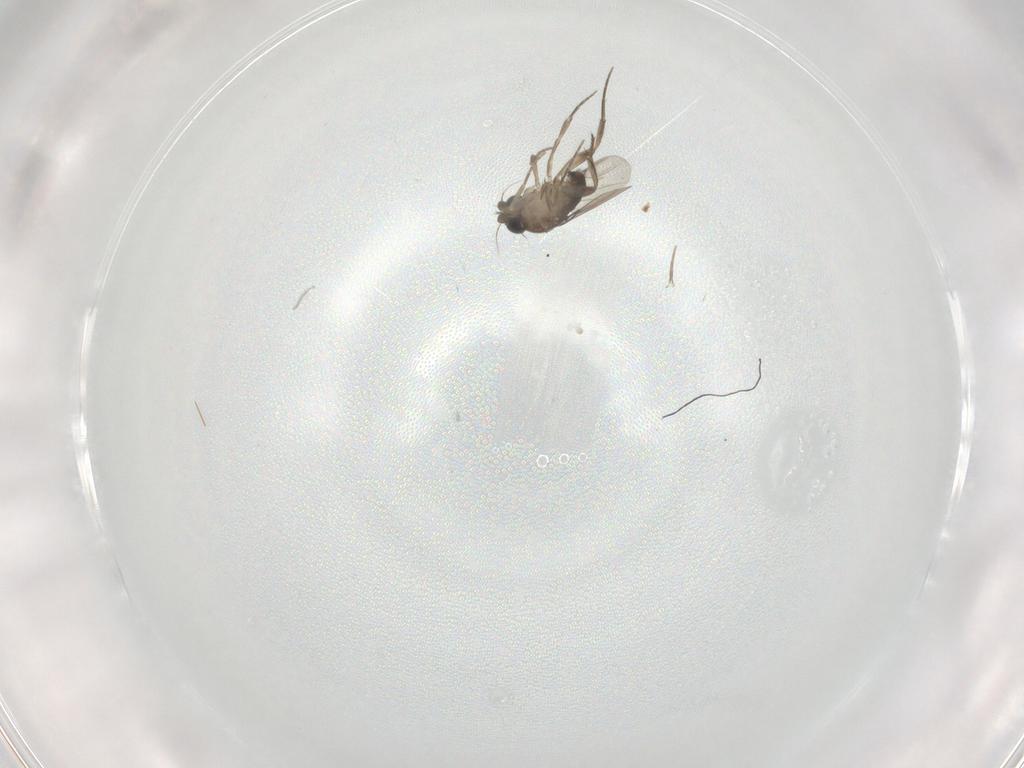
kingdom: Animalia
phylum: Arthropoda
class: Insecta
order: Diptera
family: Phoridae
